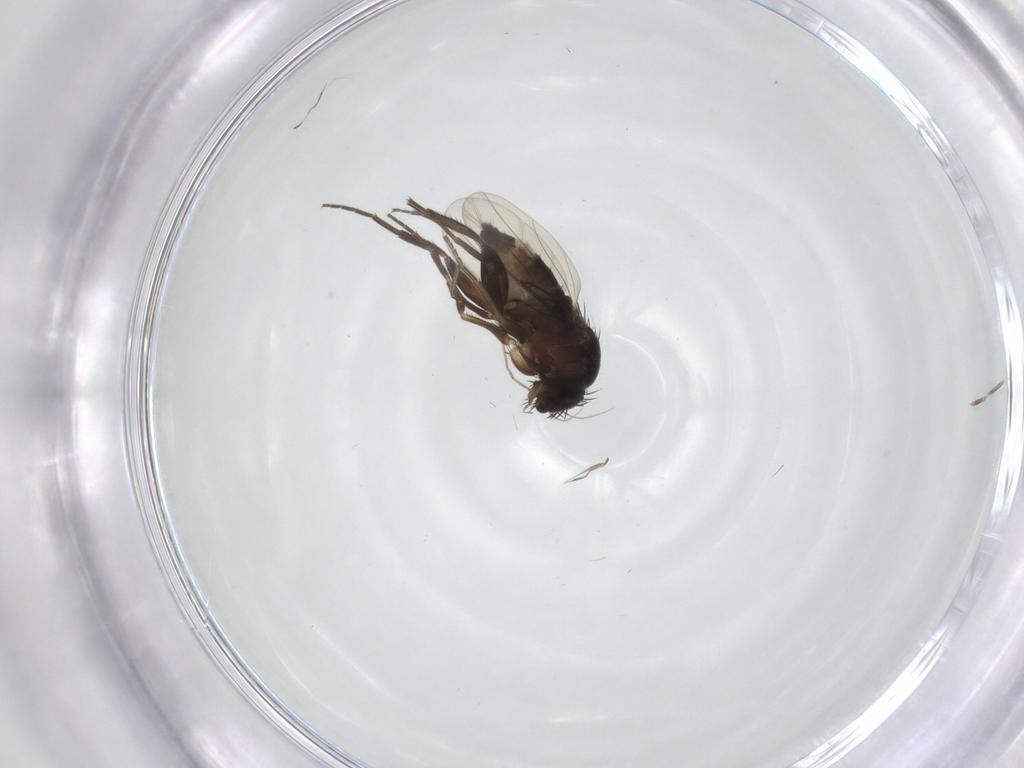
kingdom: Animalia
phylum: Arthropoda
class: Insecta
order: Diptera
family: Phoridae
